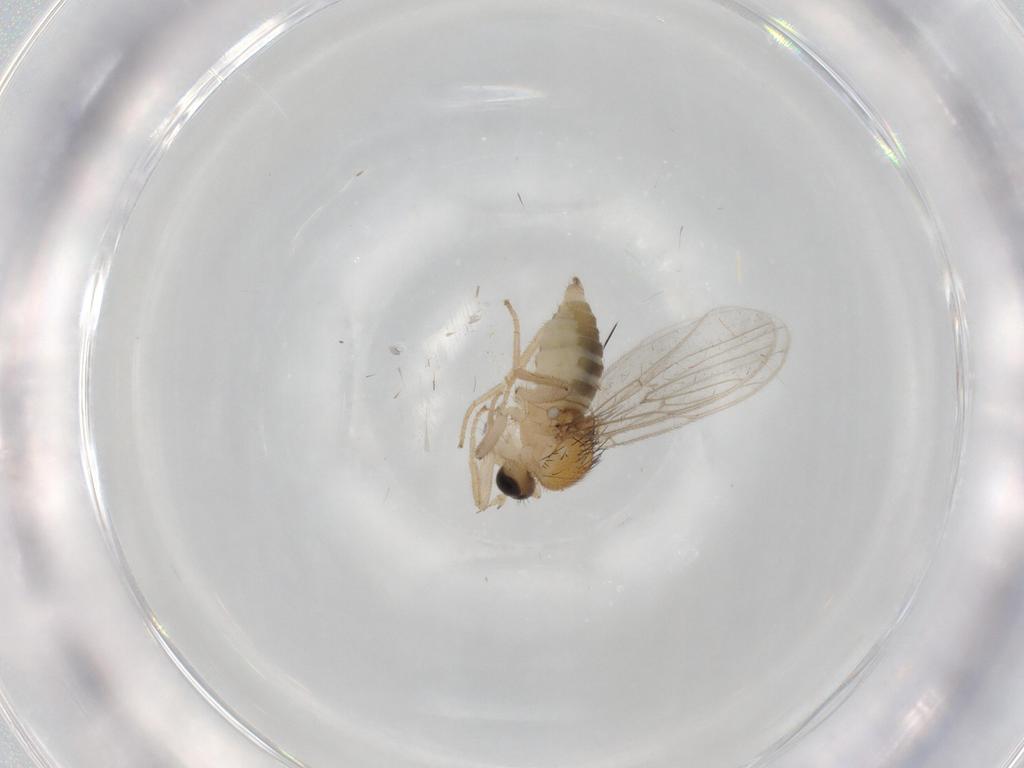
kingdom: Animalia
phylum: Arthropoda
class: Insecta
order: Diptera
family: Hybotidae
